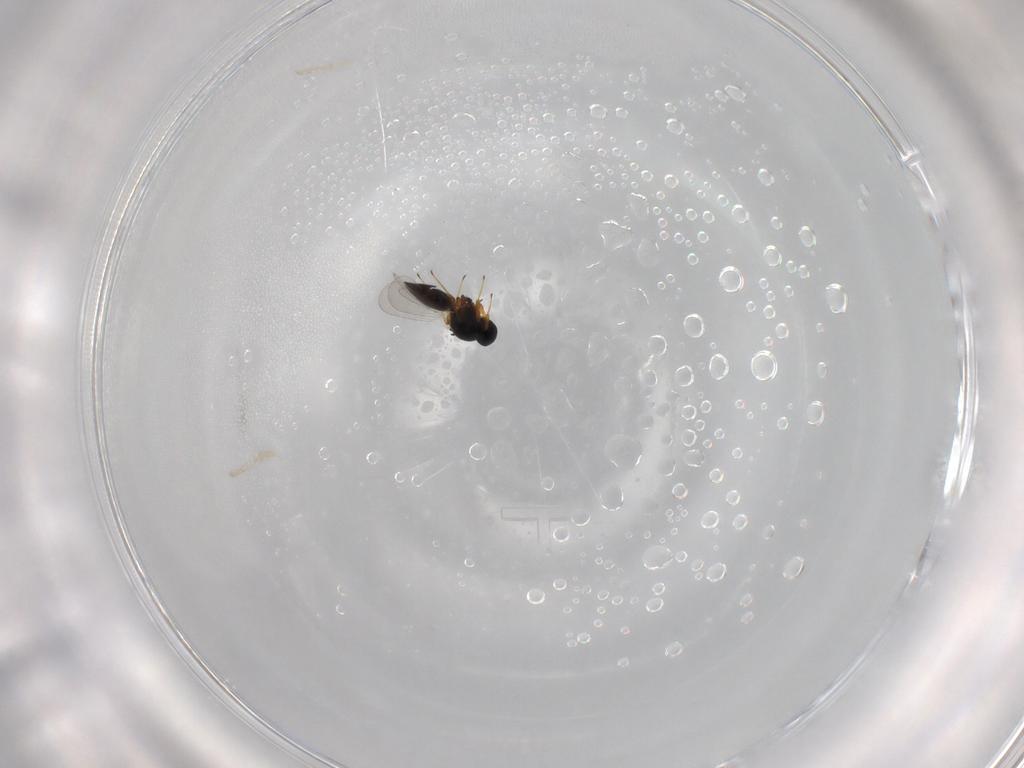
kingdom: Animalia
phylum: Arthropoda
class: Insecta
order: Hymenoptera
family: Platygastridae
